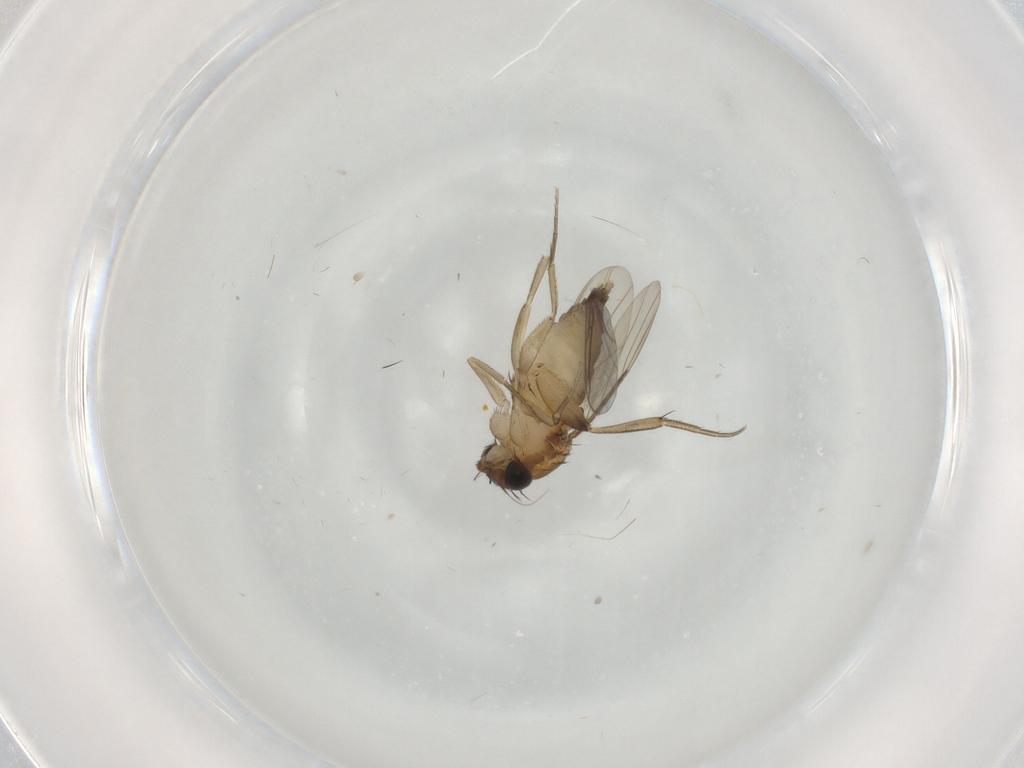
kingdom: Animalia
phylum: Arthropoda
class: Insecta
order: Diptera
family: Phoridae
